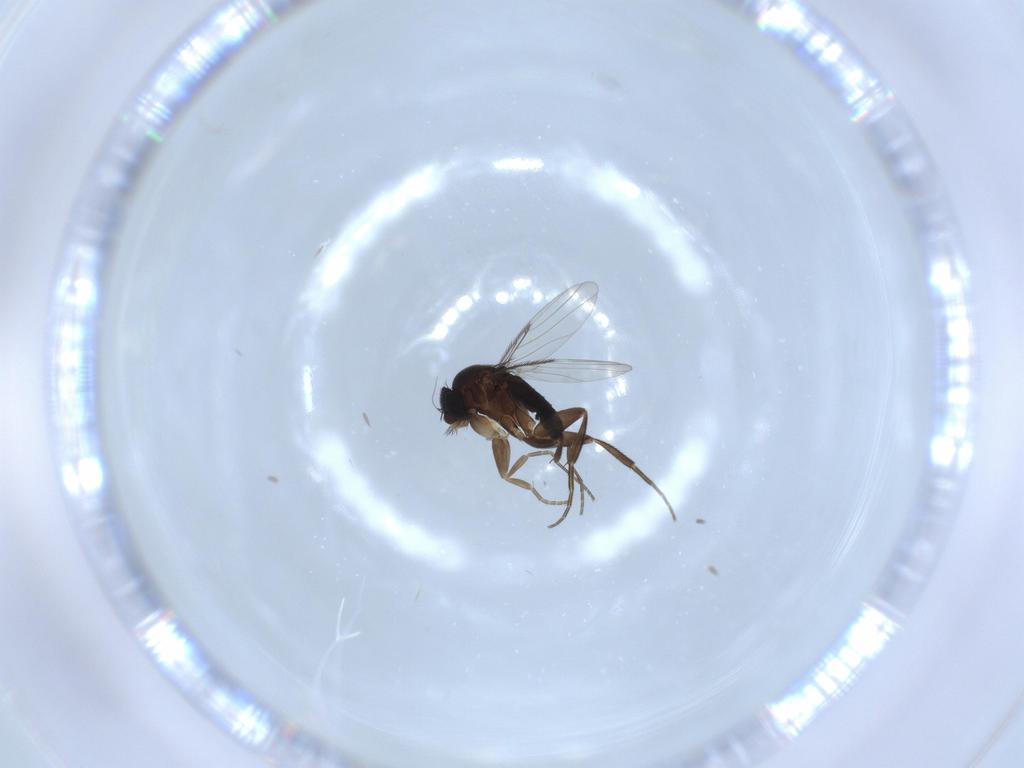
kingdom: Animalia
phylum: Arthropoda
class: Insecta
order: Diptera
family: Phoridae
